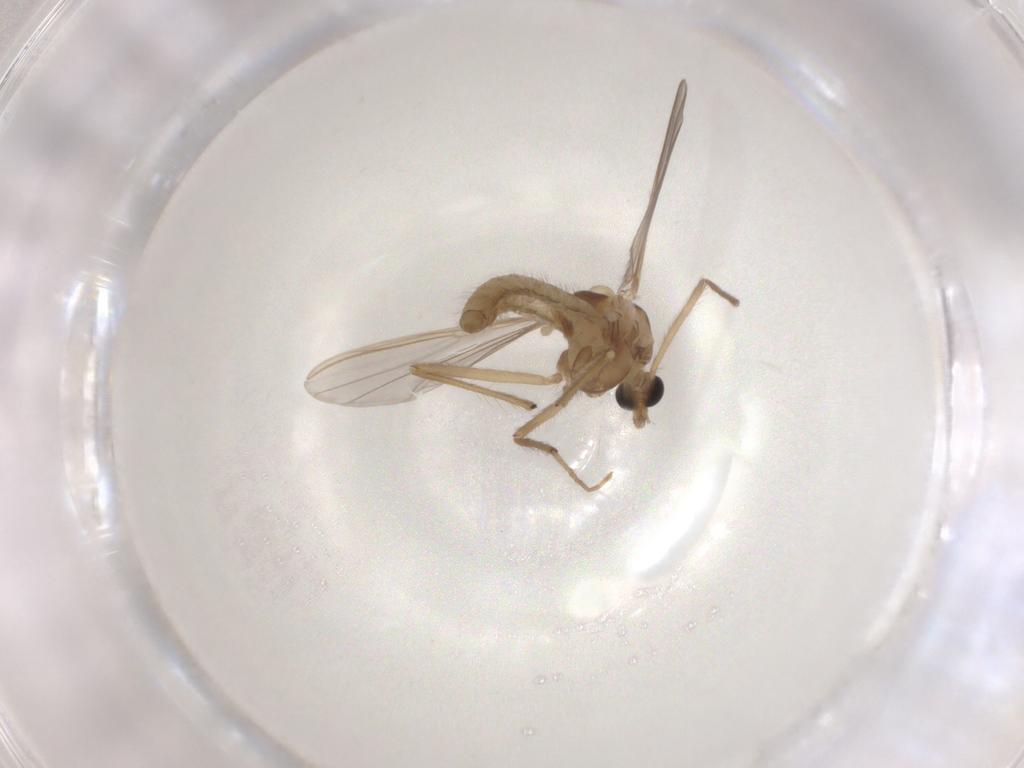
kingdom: Animalia
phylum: Arthropoda
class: Insecta
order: Diptera
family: Chironomidae
